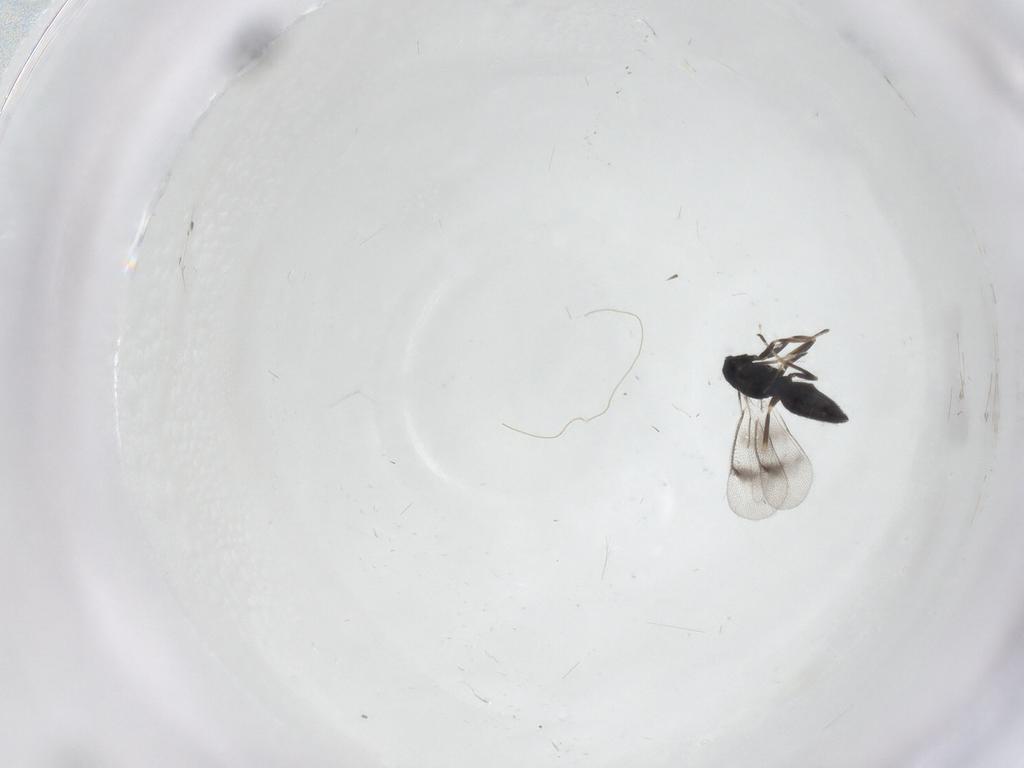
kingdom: Animalia
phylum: Arthropoda
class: Insecta
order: Hymenoptera
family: Eulophidae
